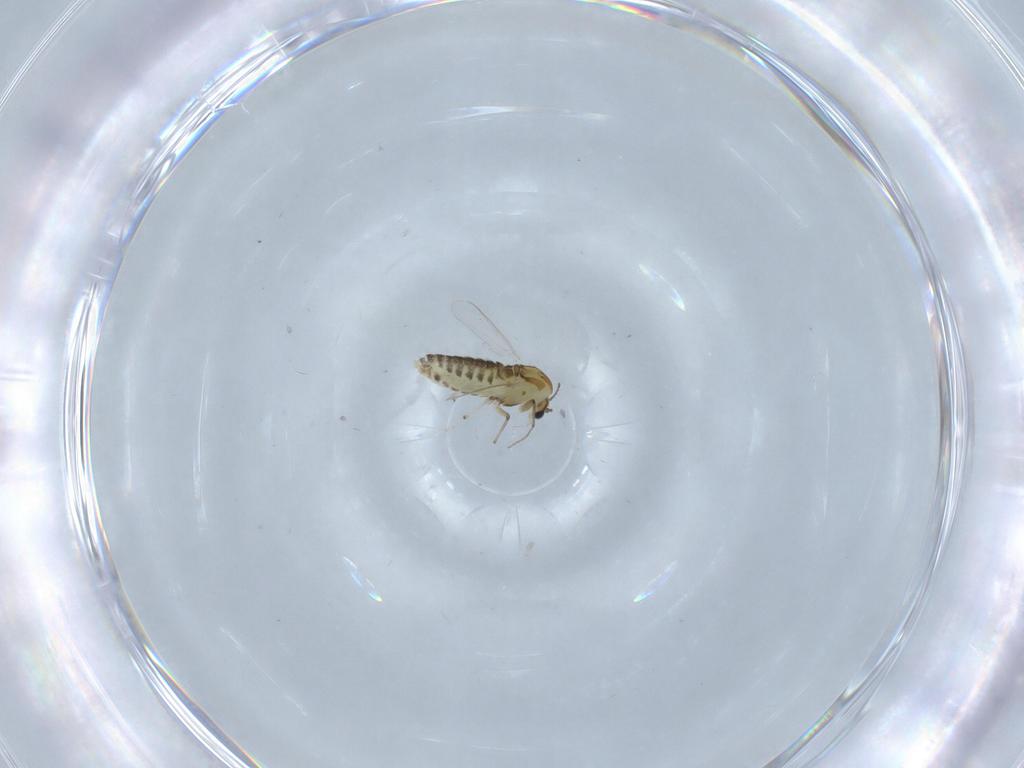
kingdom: Animalia
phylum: Arthropoda
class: Insecta
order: Diptera
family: Chironomidae
